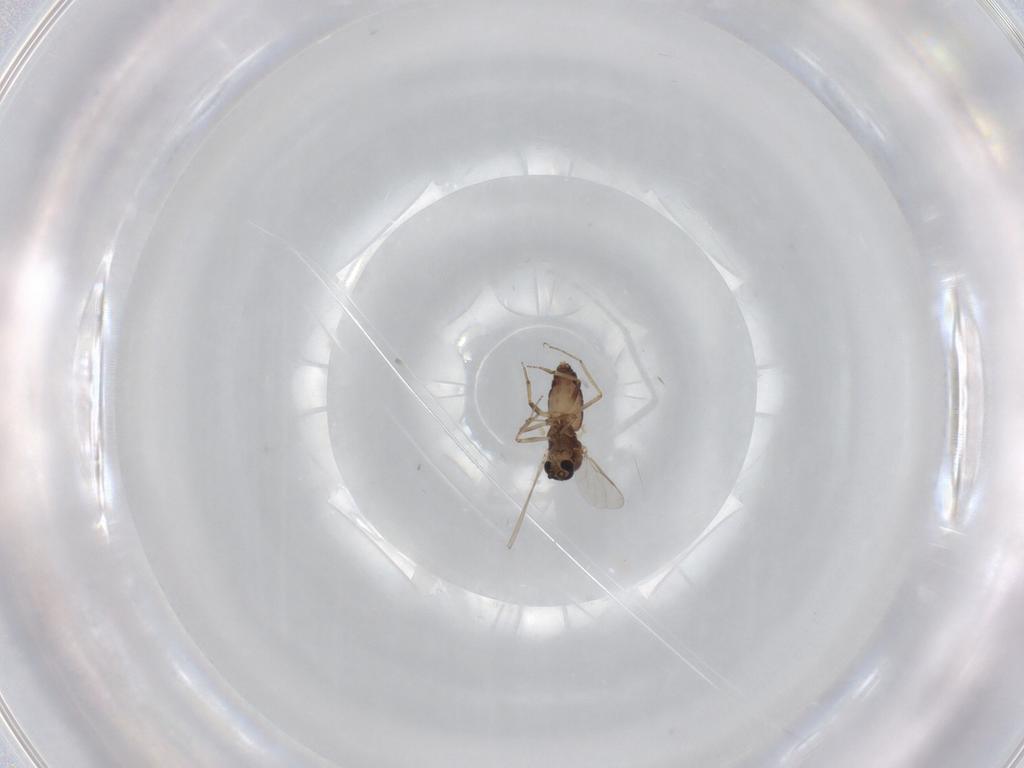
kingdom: Animalia
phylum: Arthropoda
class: Insecta
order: Diptera
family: Ceratopogonidae
